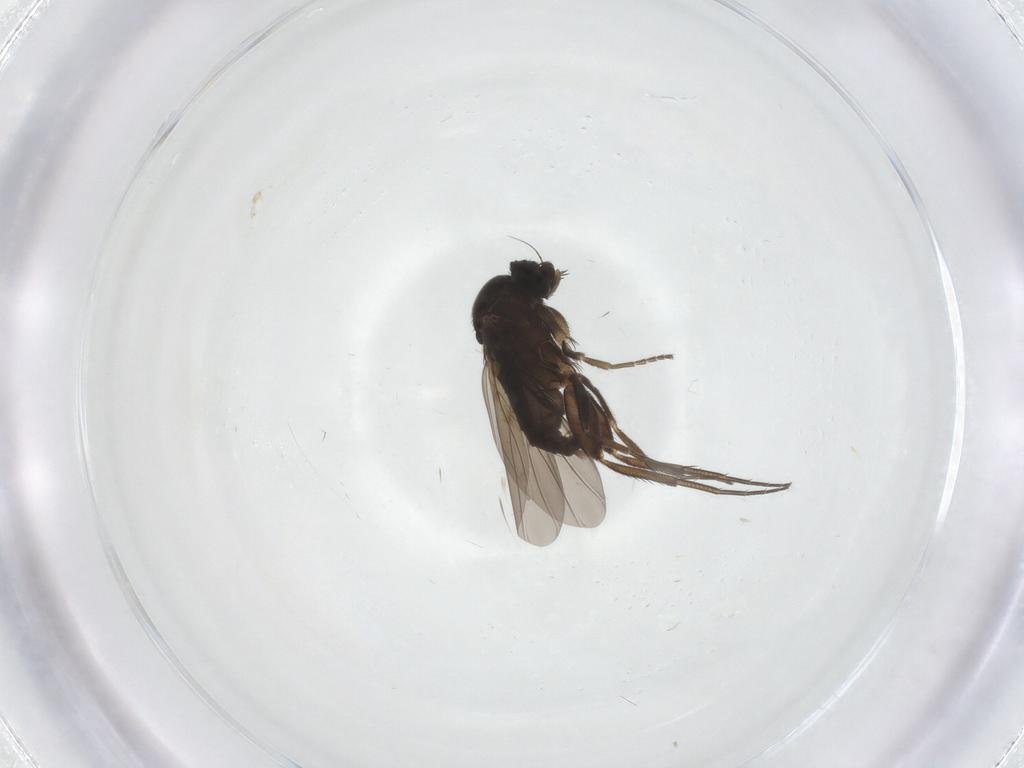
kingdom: Animalia
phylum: Arthropoda
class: Insecta
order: Diptera
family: Phoridae
